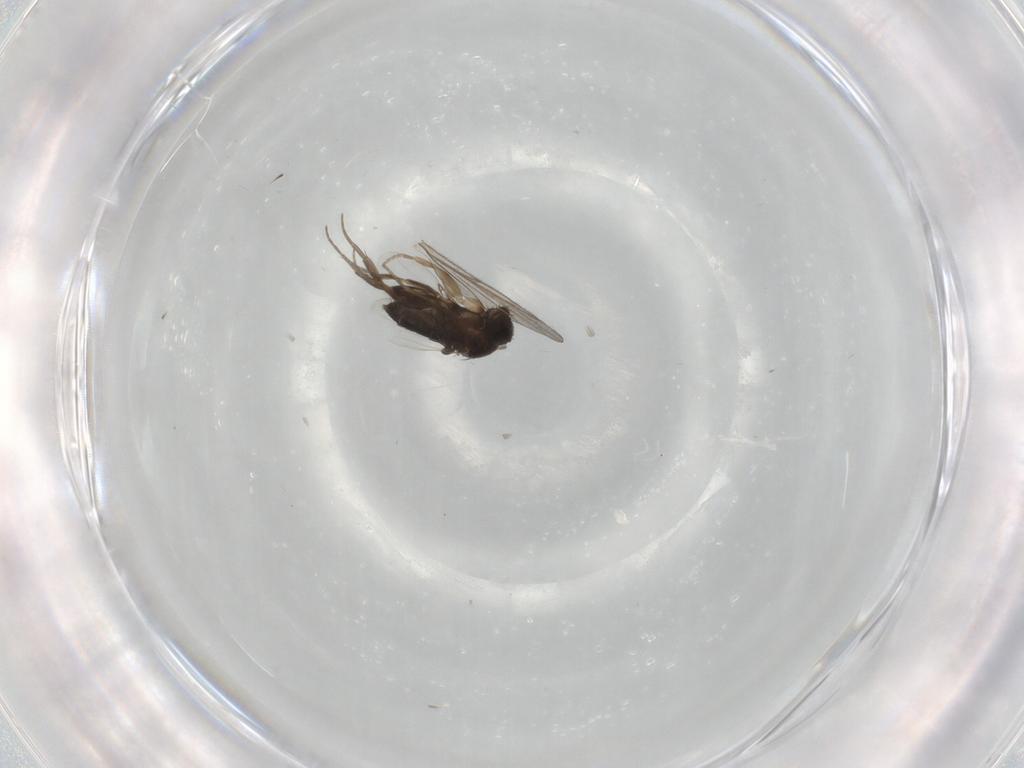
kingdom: Animalia
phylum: Arthropoda
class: Insecta
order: Diptera
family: Phoridae
